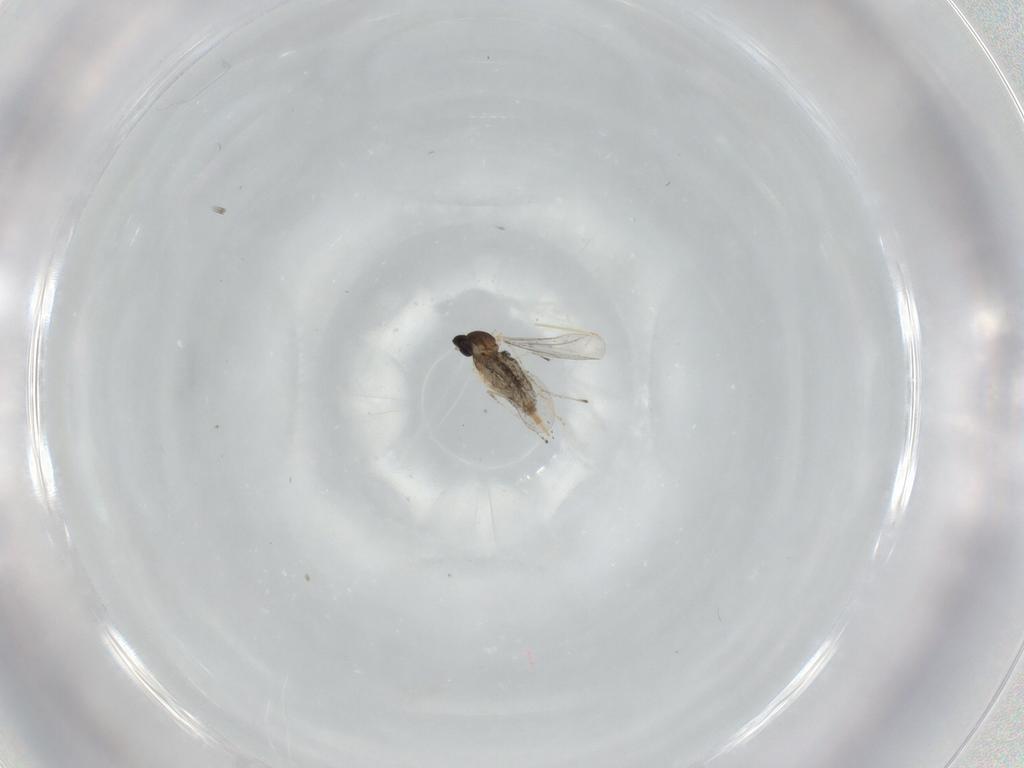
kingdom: Animalia
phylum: Arthropoda
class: Insecta
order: Diptera
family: Cecidomyiidae
